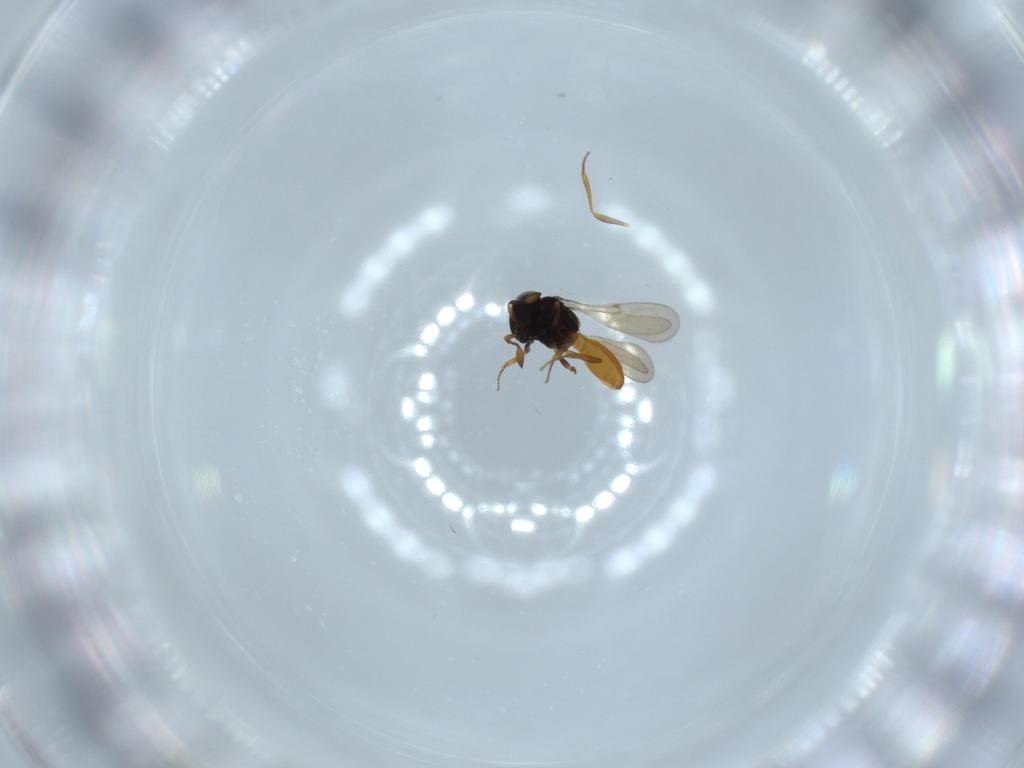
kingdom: Animalia
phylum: Arthropoda
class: Insecta
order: Hymenoptera
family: Scelionidae
